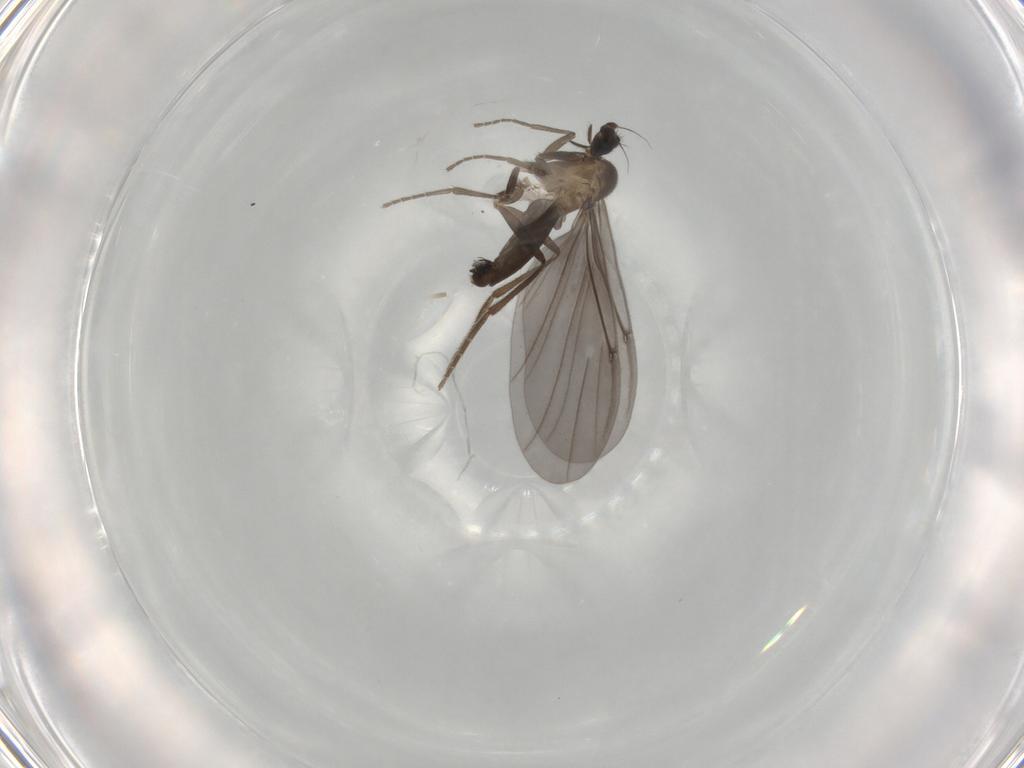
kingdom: Animalia
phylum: Arthropoda
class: Insecta
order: Diptera
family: Phoridae
